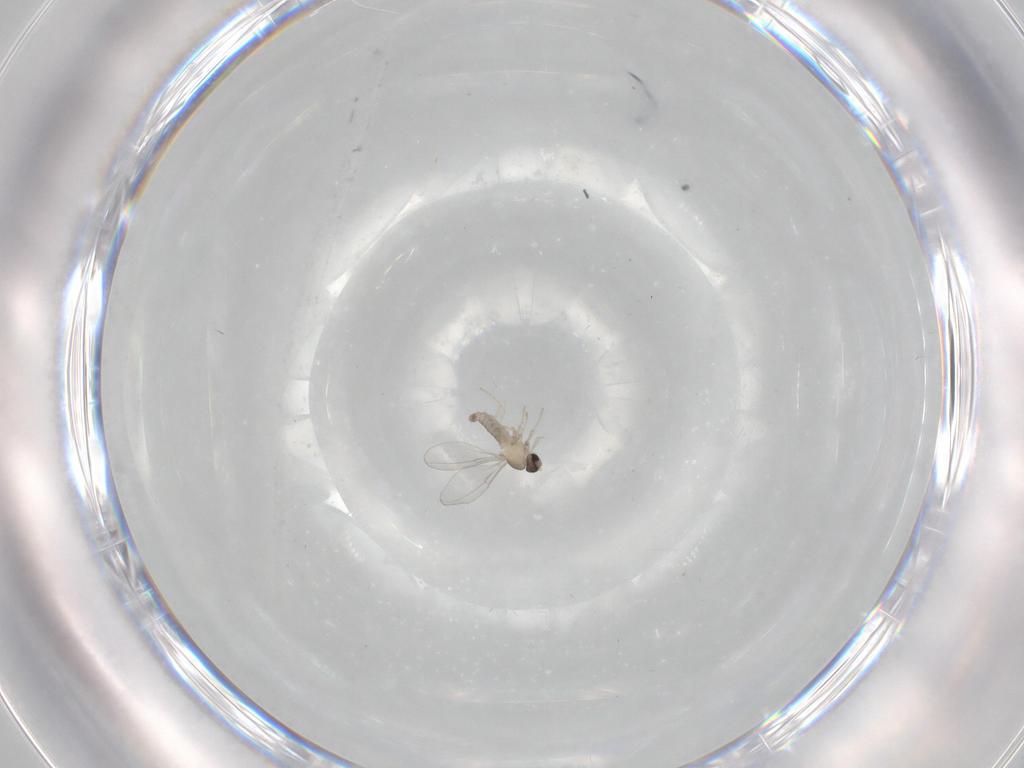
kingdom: Animalia
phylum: Arthropoda
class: Insecta
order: Diptera
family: Cecidomyiidae
